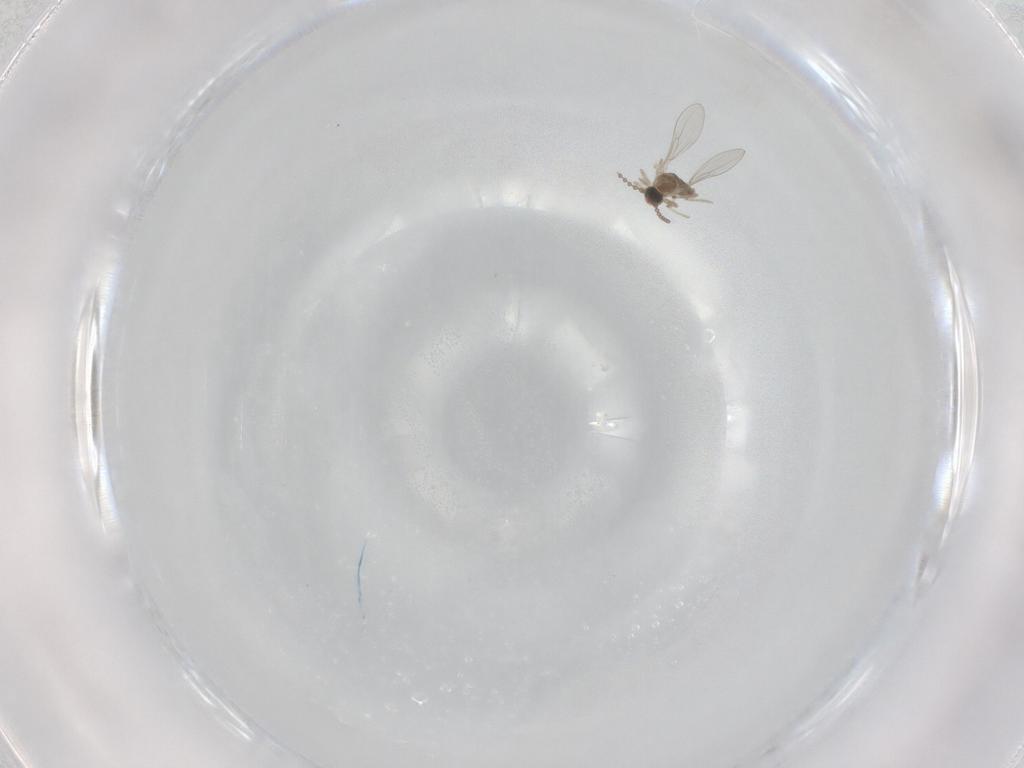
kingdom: Animalia
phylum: Arthropoda
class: Insecta
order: Diptera
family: Cecidomyiidae
